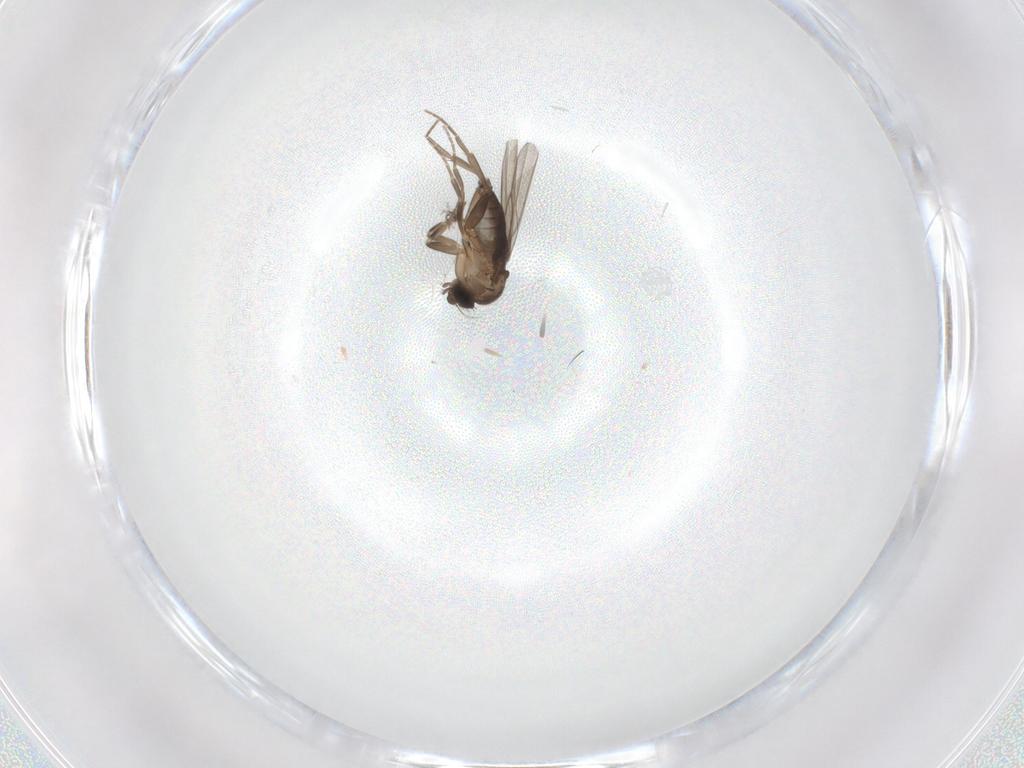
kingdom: Animalia
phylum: Arthropoda
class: Insecta
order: Diptera
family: Phoridae
